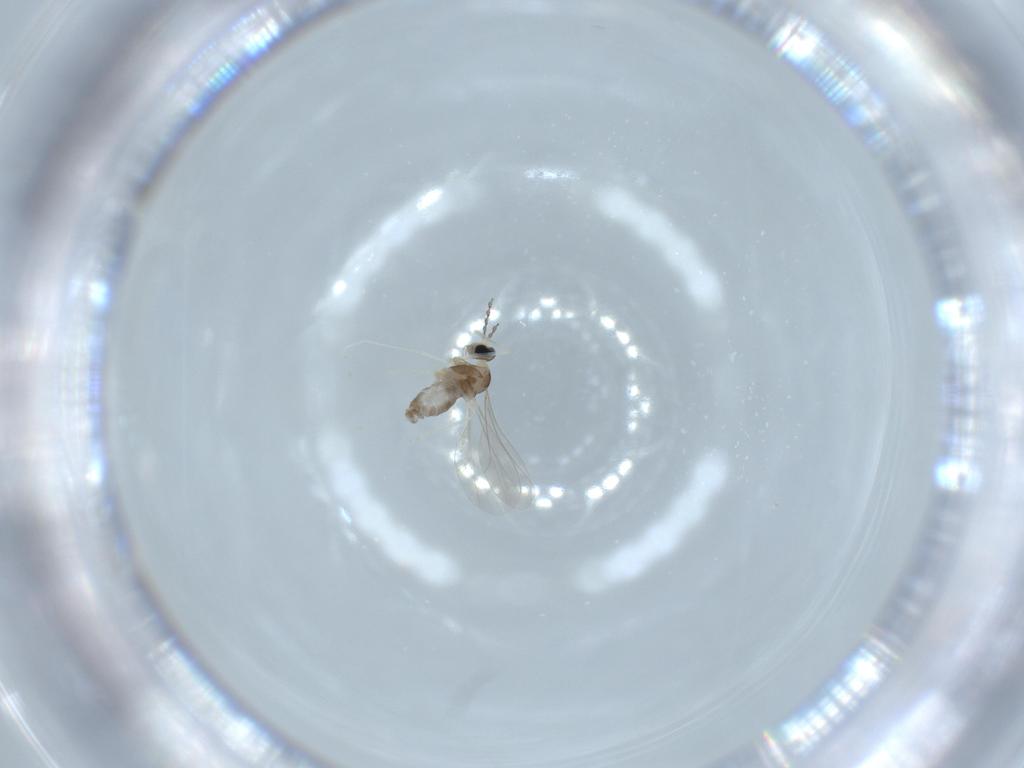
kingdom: Animalia
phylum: Arthropoda
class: Insecta
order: Diptera
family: Cecidomyiidae
